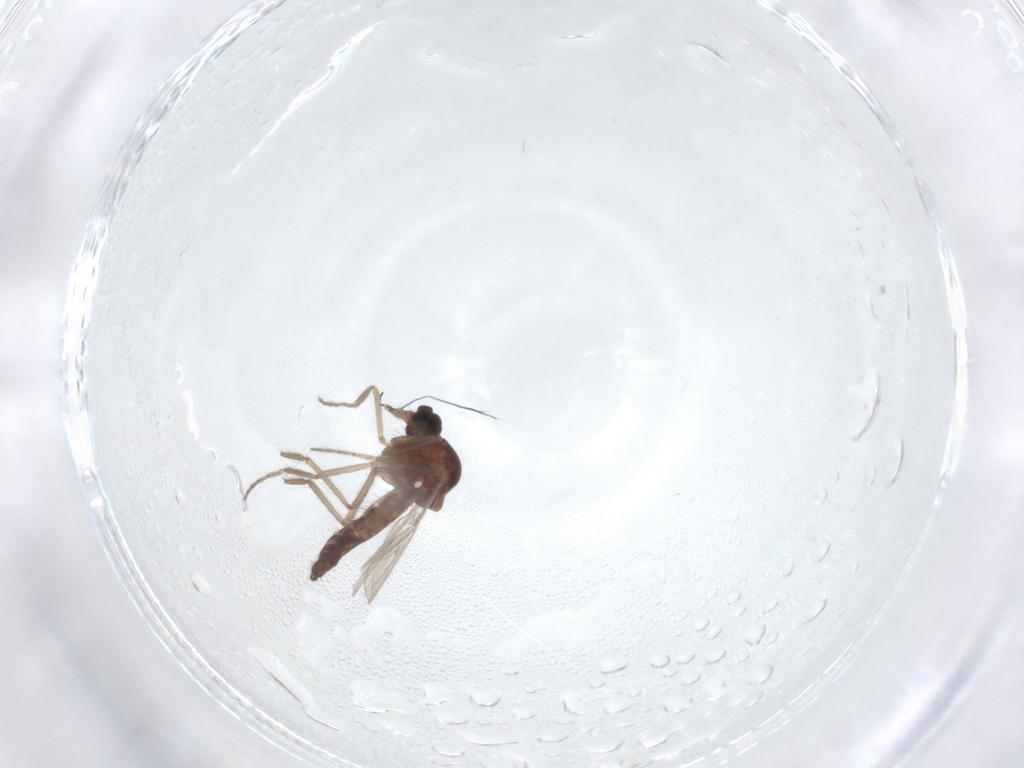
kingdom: Animalia
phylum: Arthropoda
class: Insecta
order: Diptera
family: Ceratopogonidae
